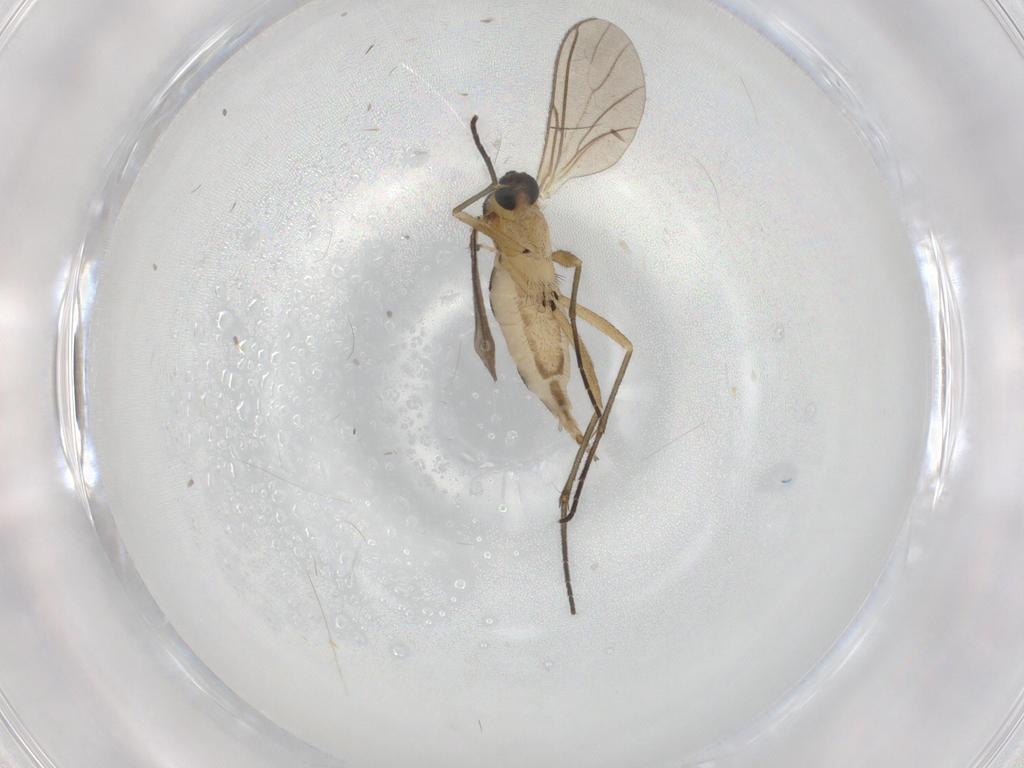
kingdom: Animalia
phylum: Arthropoda
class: Insecta
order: Diptera
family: Sciaridae
